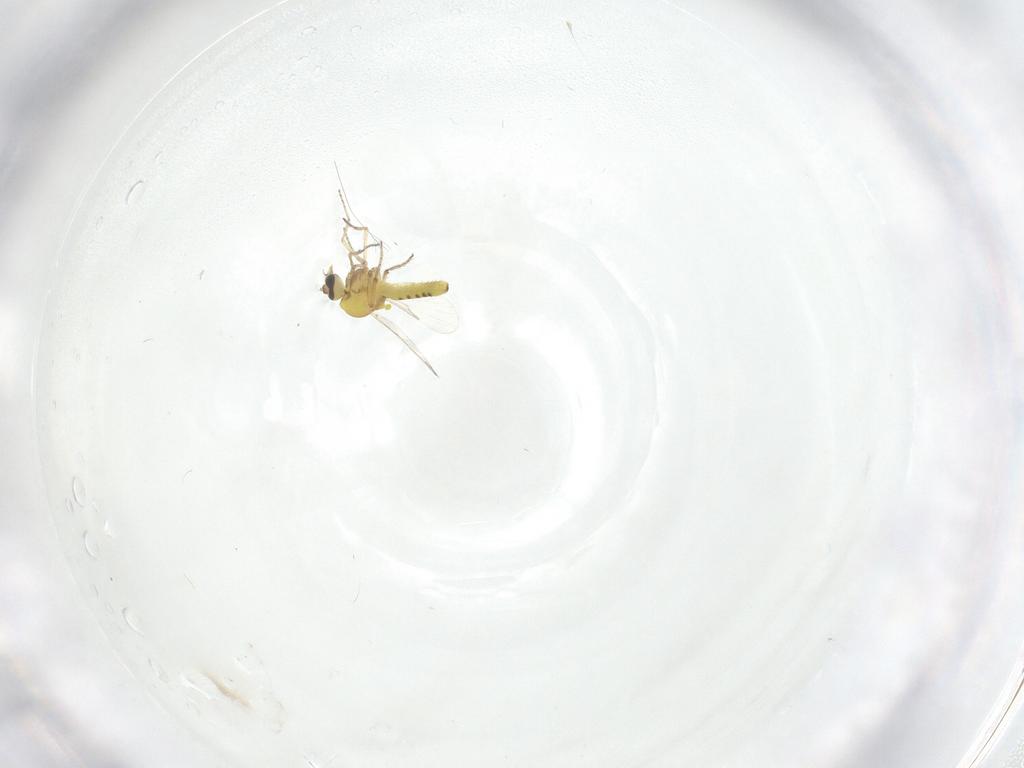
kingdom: Animalia
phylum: Arthropoda
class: Insecta
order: Diptera
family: Ceratopogonidae
